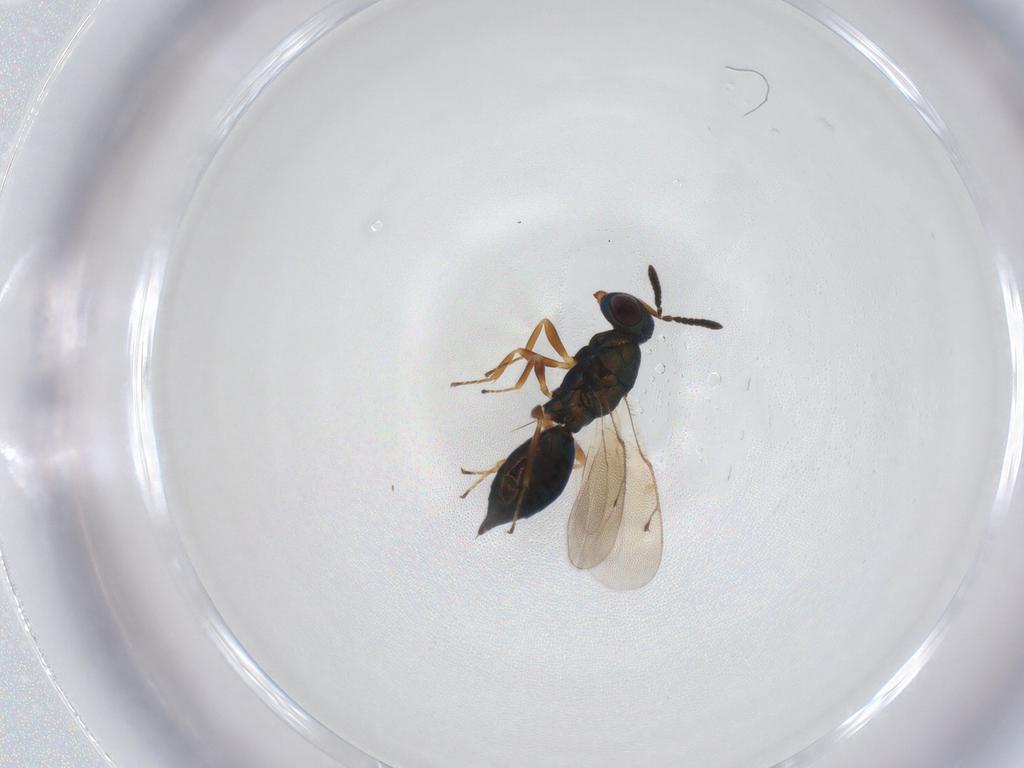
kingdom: Animalia
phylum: Arthropoda
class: Insecta
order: Hymenoptera
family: Pteromalidae
